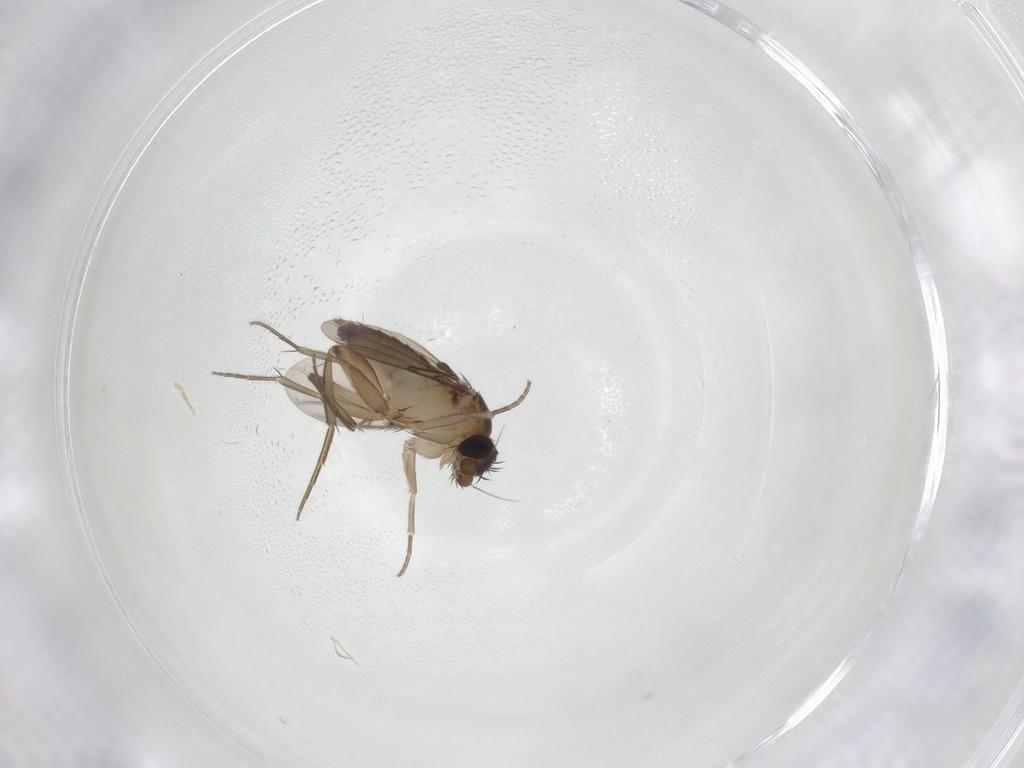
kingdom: Animalia
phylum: Arthropoda
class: Insecta
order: Diptera
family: Phoridae
